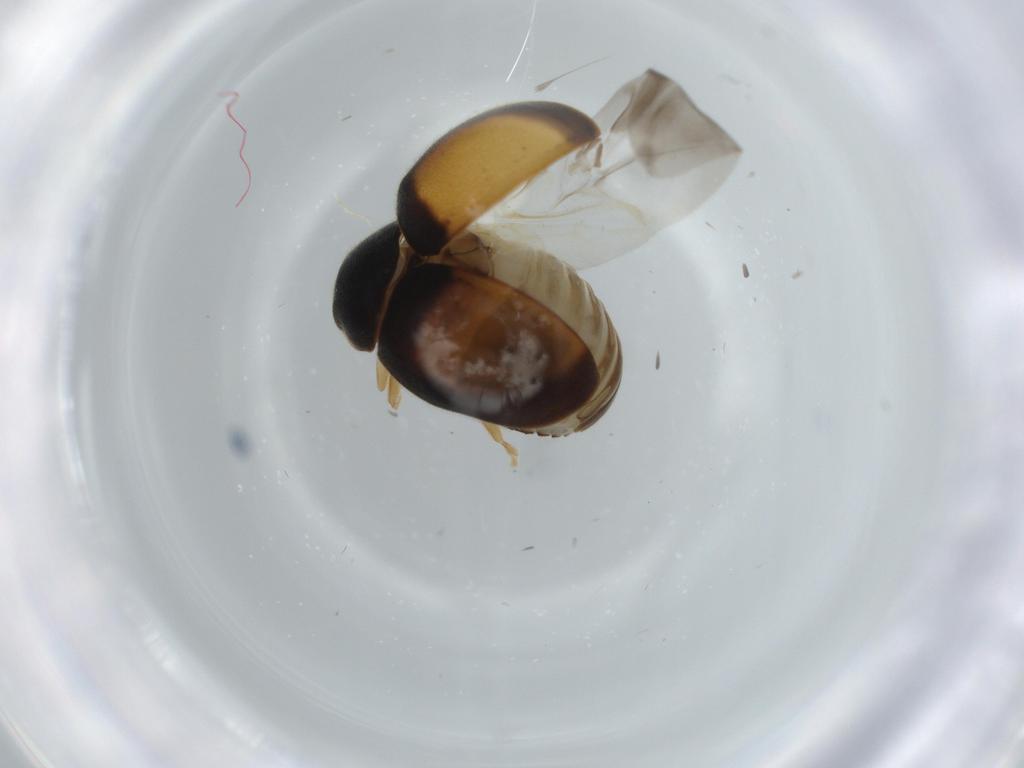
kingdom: Animalia
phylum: Arthropoda
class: Insecta
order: Coleoptera
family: Coccinellidae
